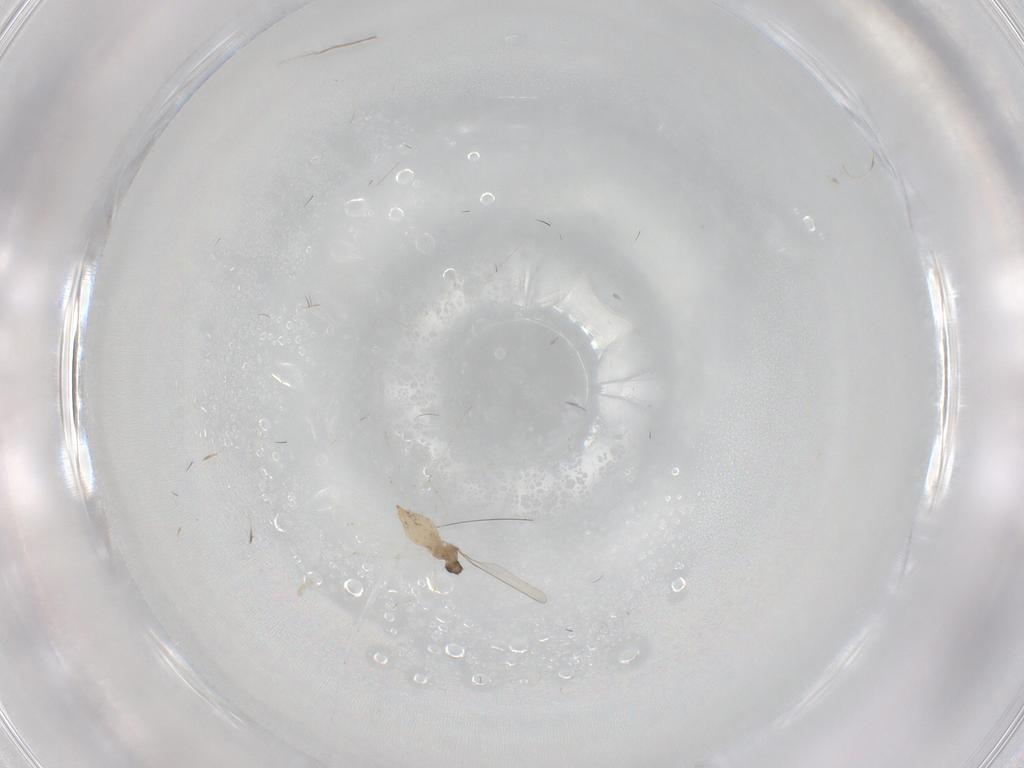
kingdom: Animalia
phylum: Arthropoda
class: Insecta
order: Diptera
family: Cecidomyiidae
